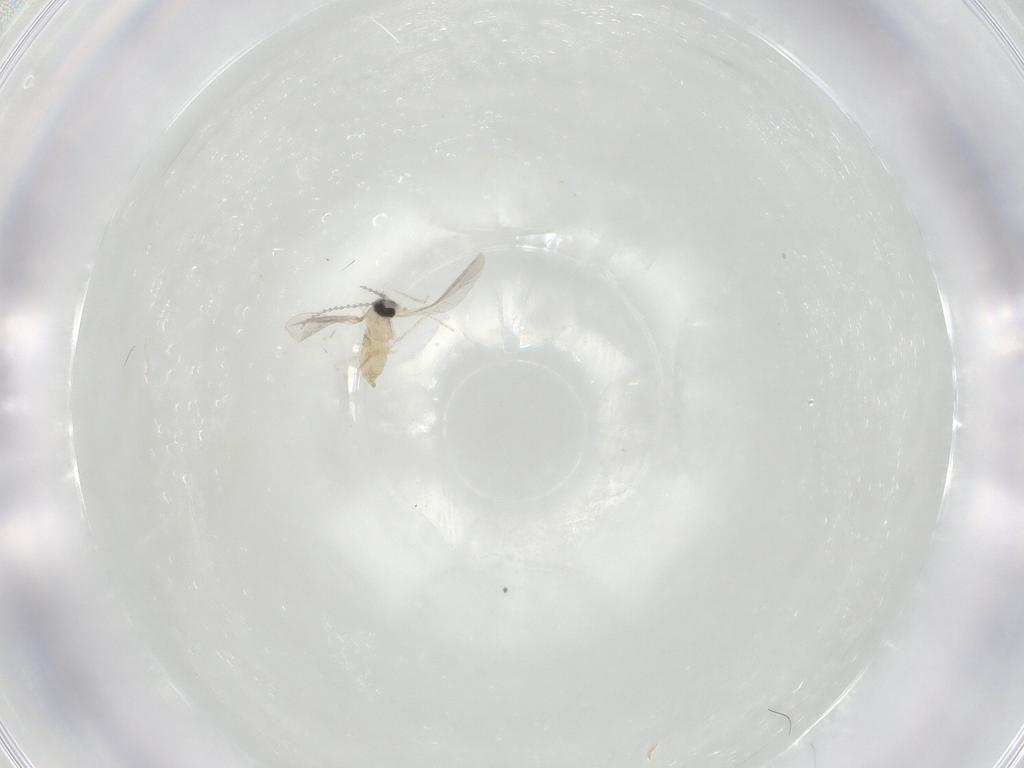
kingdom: Animalia
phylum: Arthropoda
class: Insecta
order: Diptera
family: Cecidomyiidae
